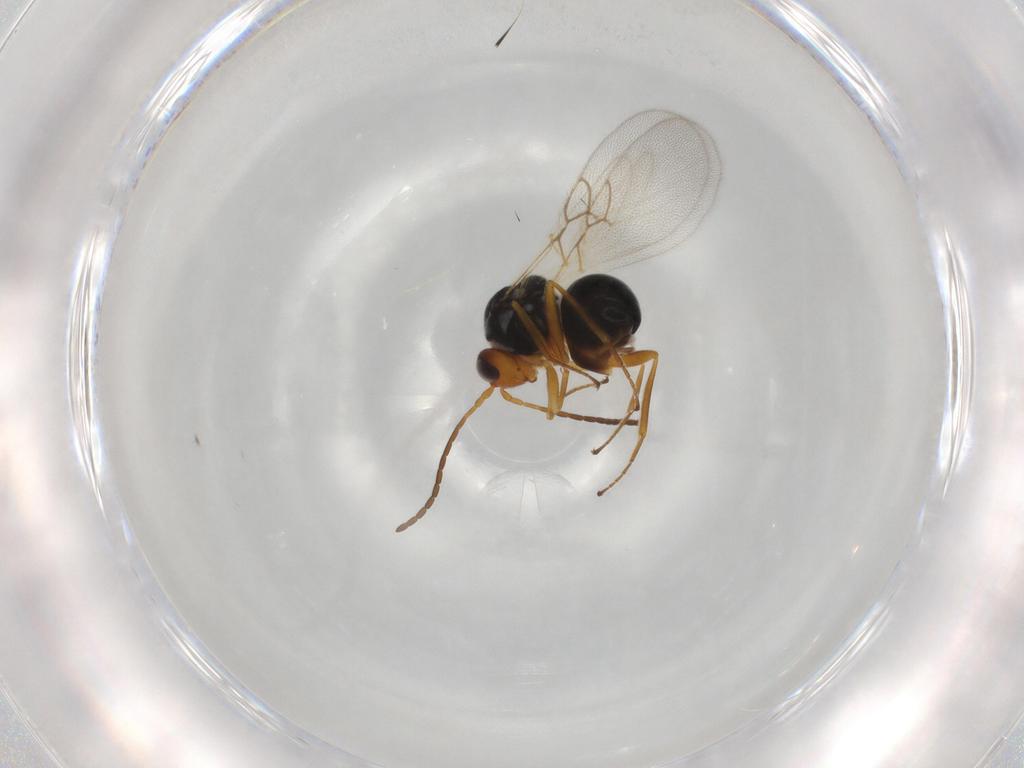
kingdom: Animalia
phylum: Arthropoda
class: Insecta
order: Hymenoptera
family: Figitidae
